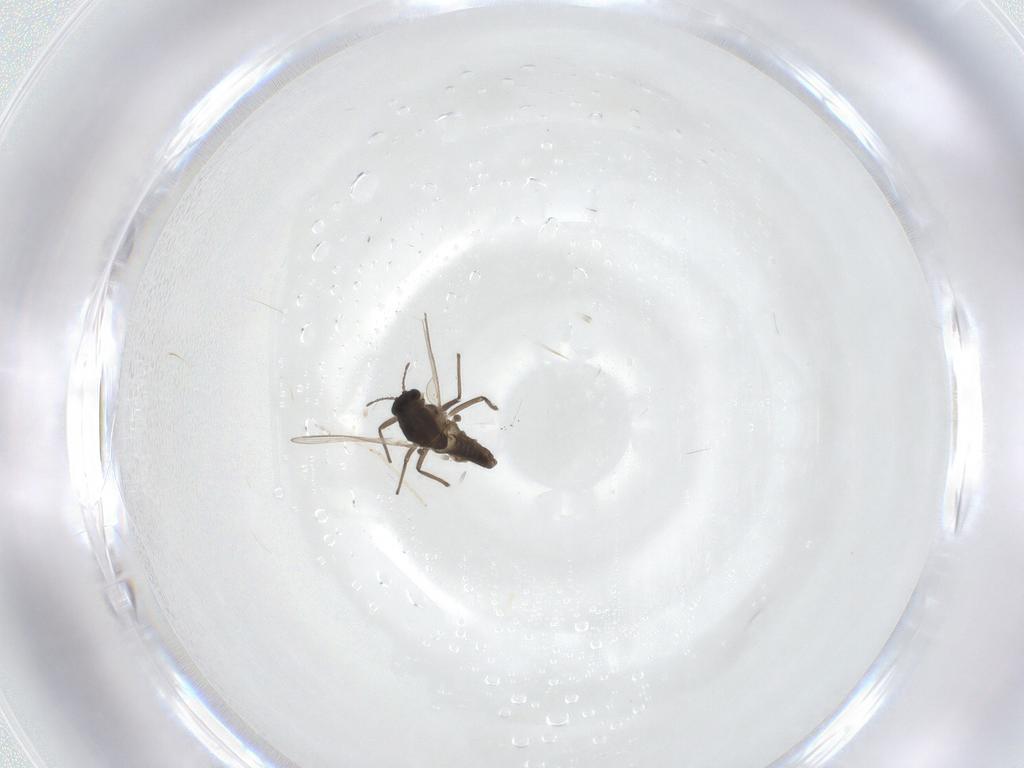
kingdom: Animalia
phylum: Arthropoda
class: Insecta
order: Diptera
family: Chironomidae
